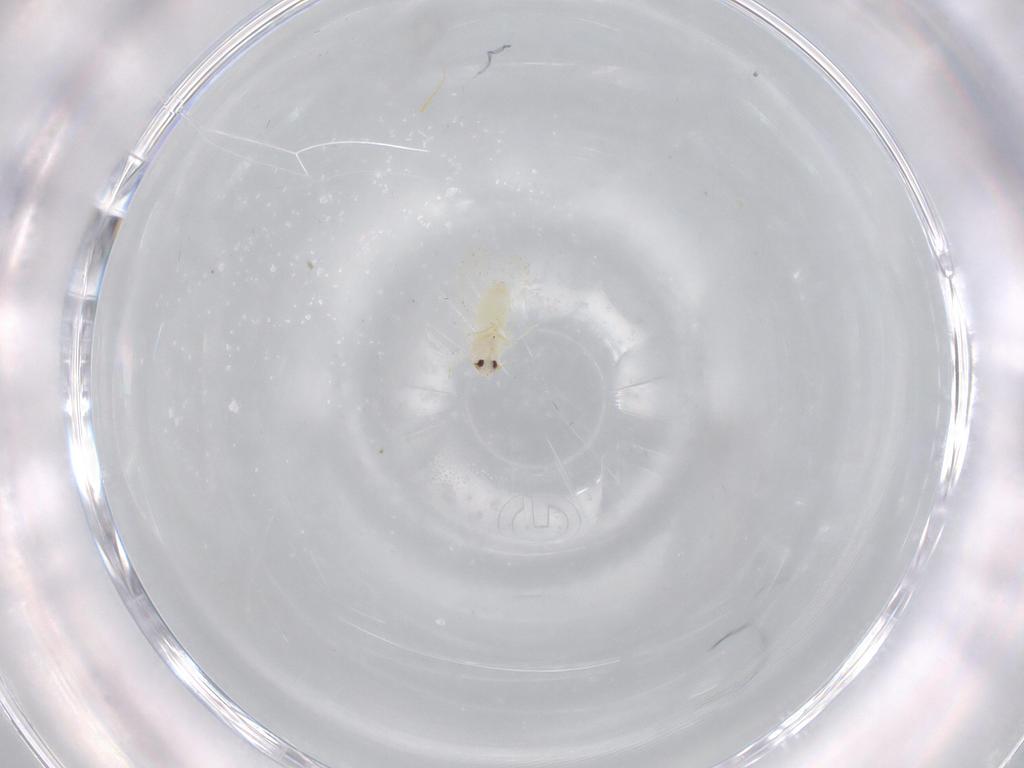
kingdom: Animalia
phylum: Arthropoda
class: Insecta
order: Hemiptera
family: Aleyrodidae
